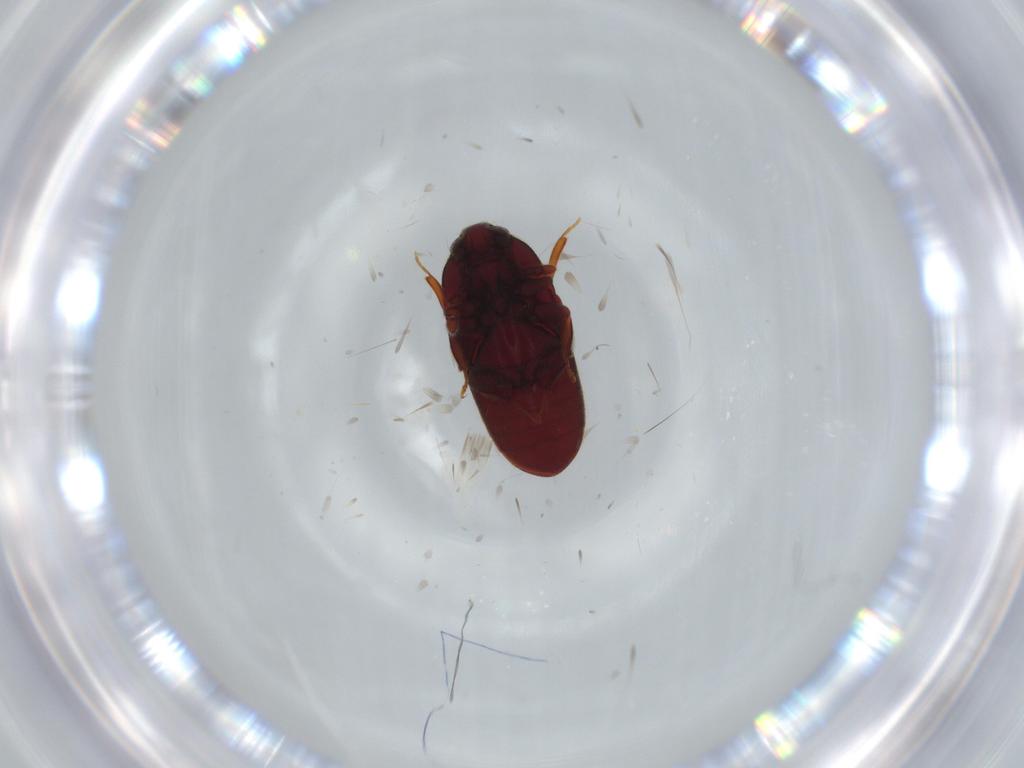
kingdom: Animalia
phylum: Arthropoda
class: Insecta
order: Coleoptera
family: Throscidae
